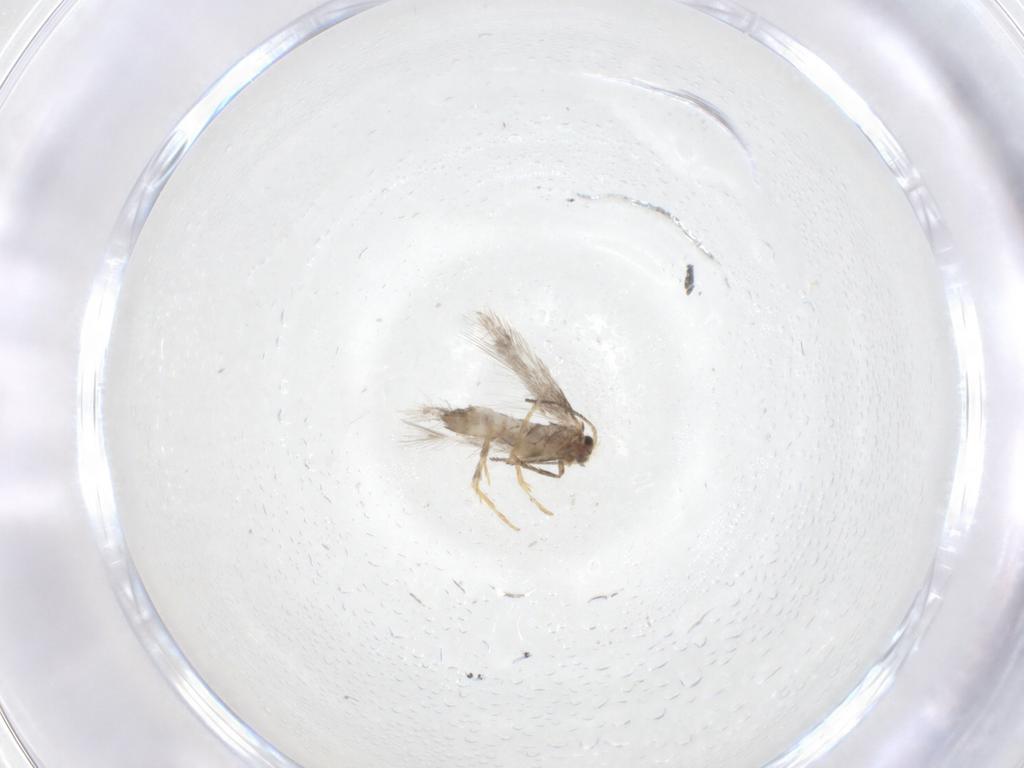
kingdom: Animalia
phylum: Arthropoda
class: Insecta
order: Lepidoptera
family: Nepticulidae
